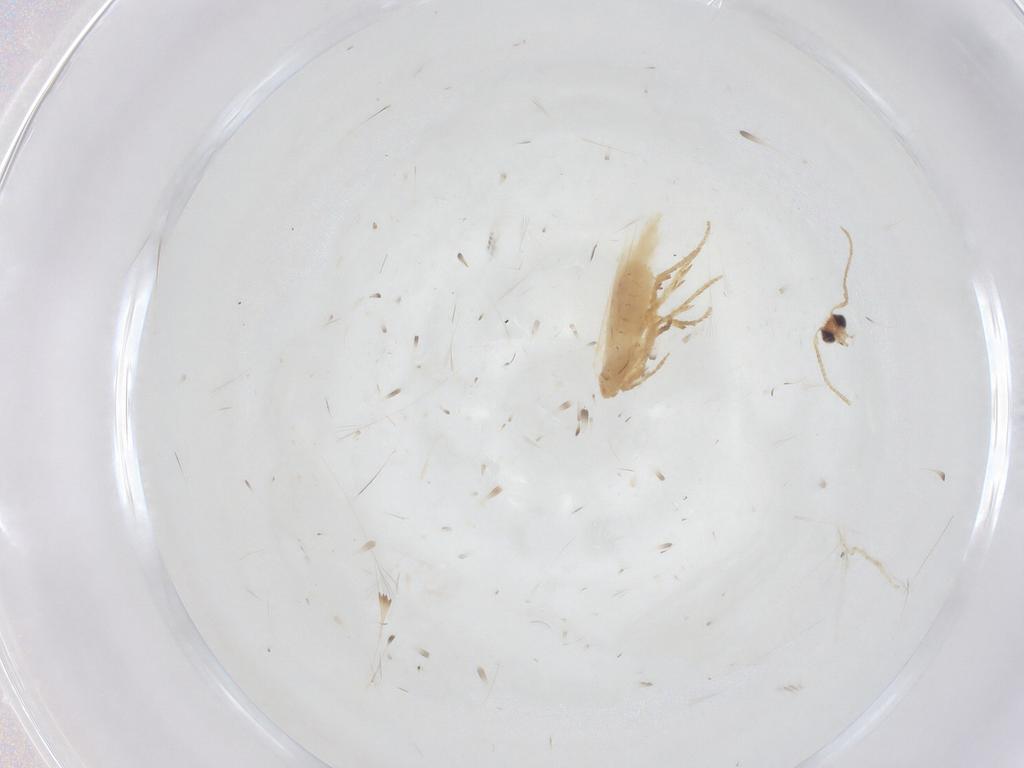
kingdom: Animalia
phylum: Arthropoda
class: Insecta
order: Lepidoptera
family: Nepticulidae
